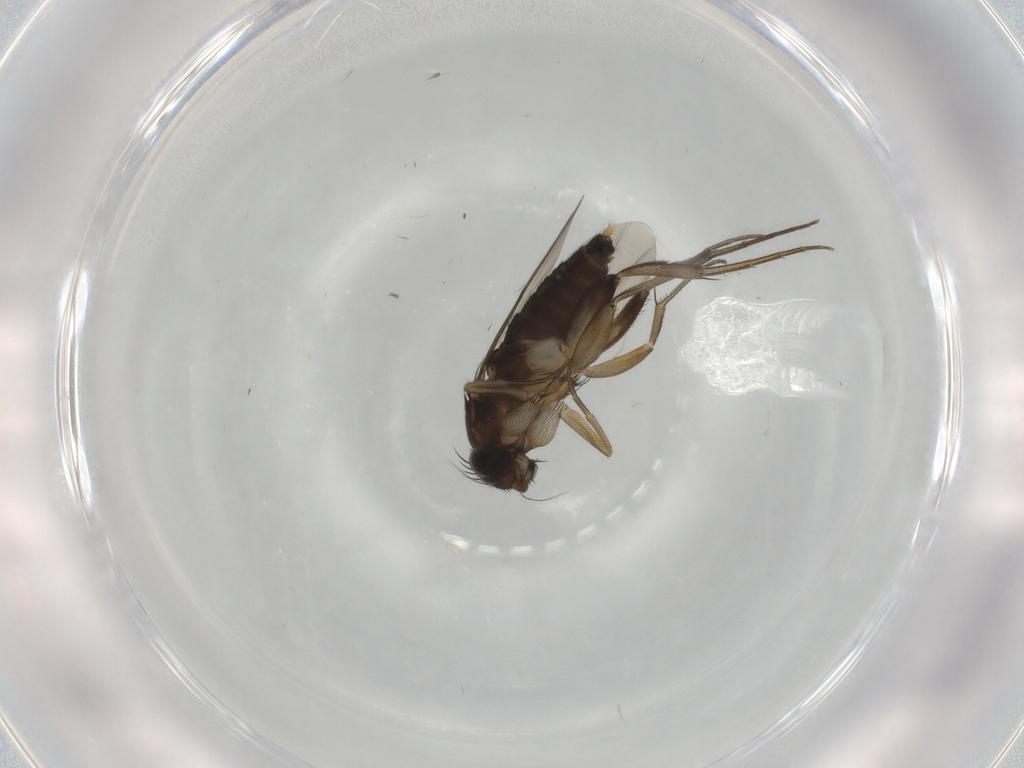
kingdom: Animalia
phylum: Arthropoda
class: Insecta
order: Diptera
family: Phoridae
